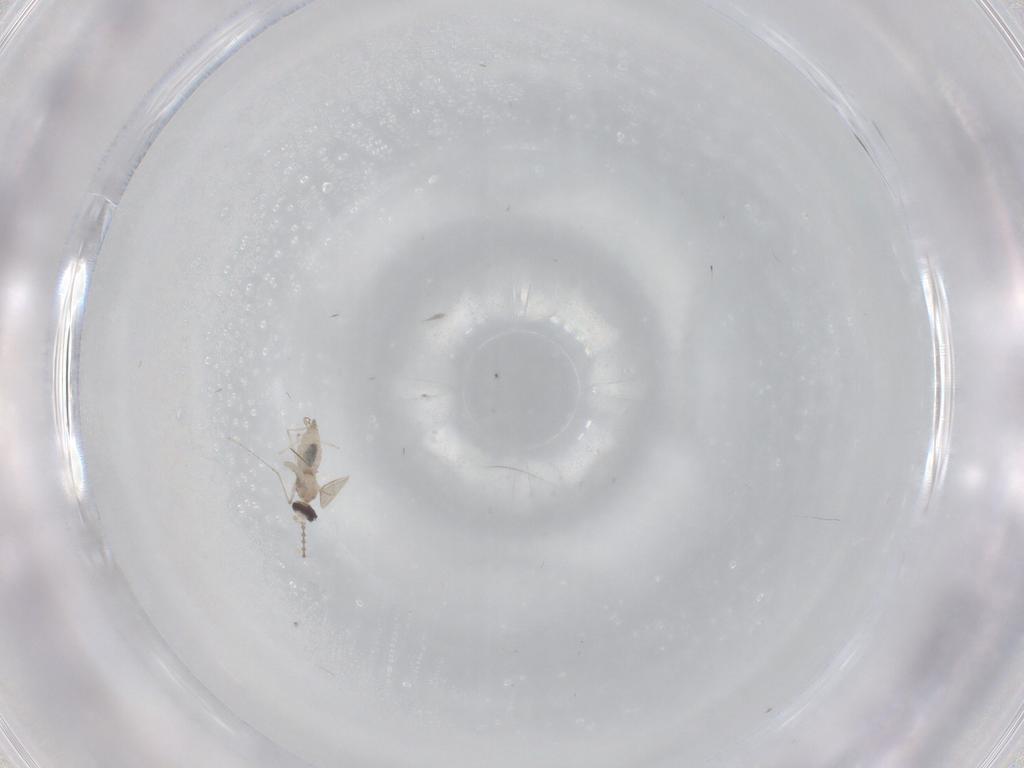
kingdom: Animalia
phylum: Arthropoda
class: Insecta
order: Diptera
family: Cecidomyiidae
